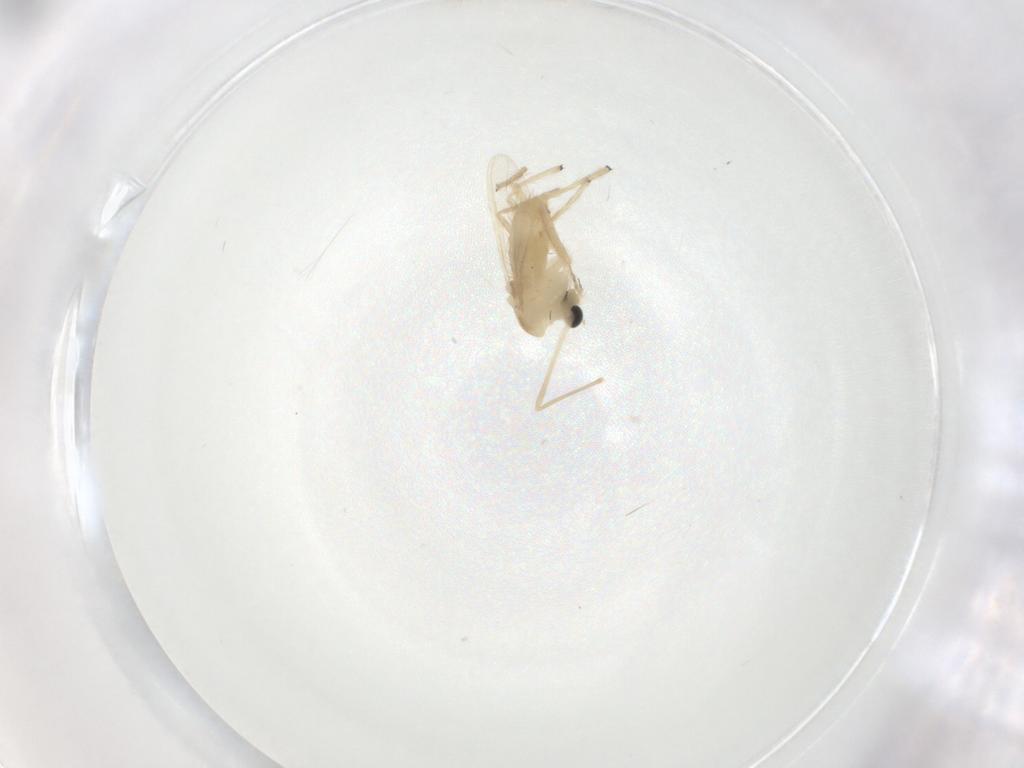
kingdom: Animalia
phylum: Arthropoda
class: Insecta
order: Diptera
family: Chironomidae
